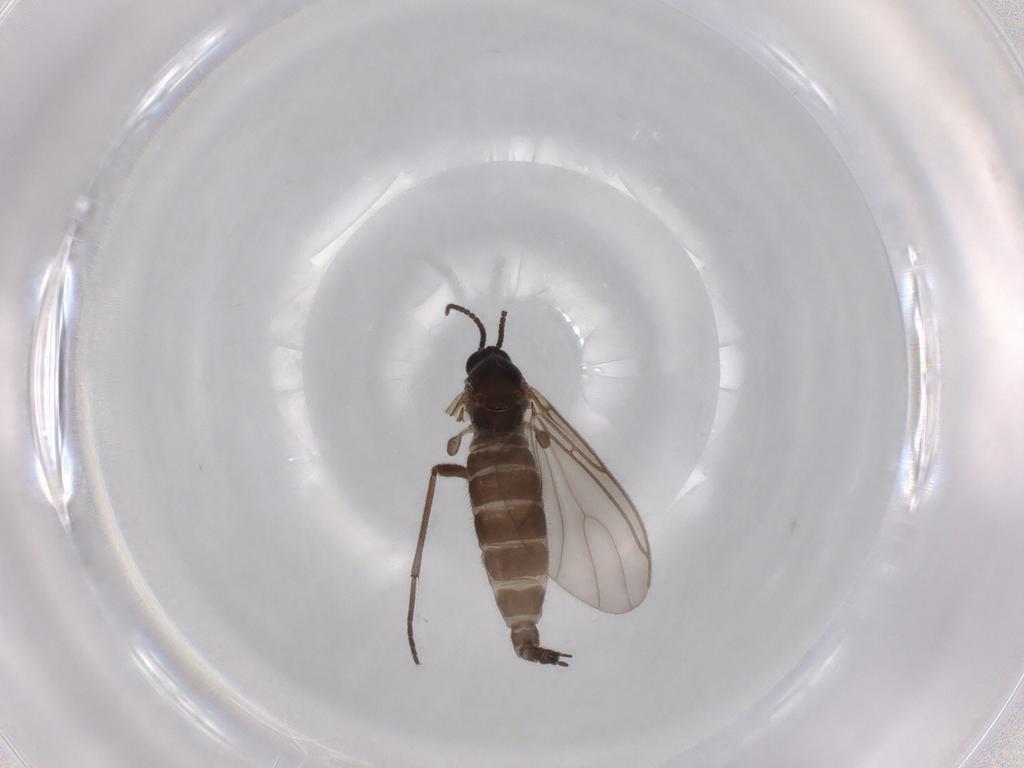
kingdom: Animalia
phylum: Arthropoda
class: Insecta
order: Diptera
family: Sciaridae
